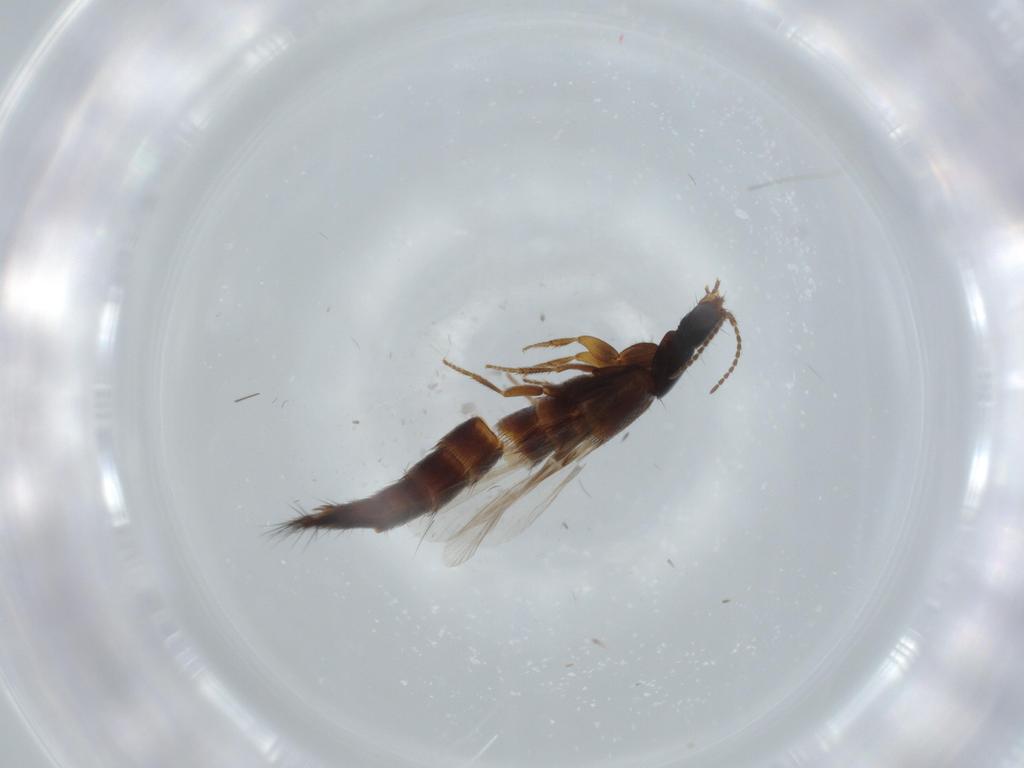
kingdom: Animalia
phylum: Arthropoda
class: Insecta
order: Coleoptera
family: Staphylinidae
